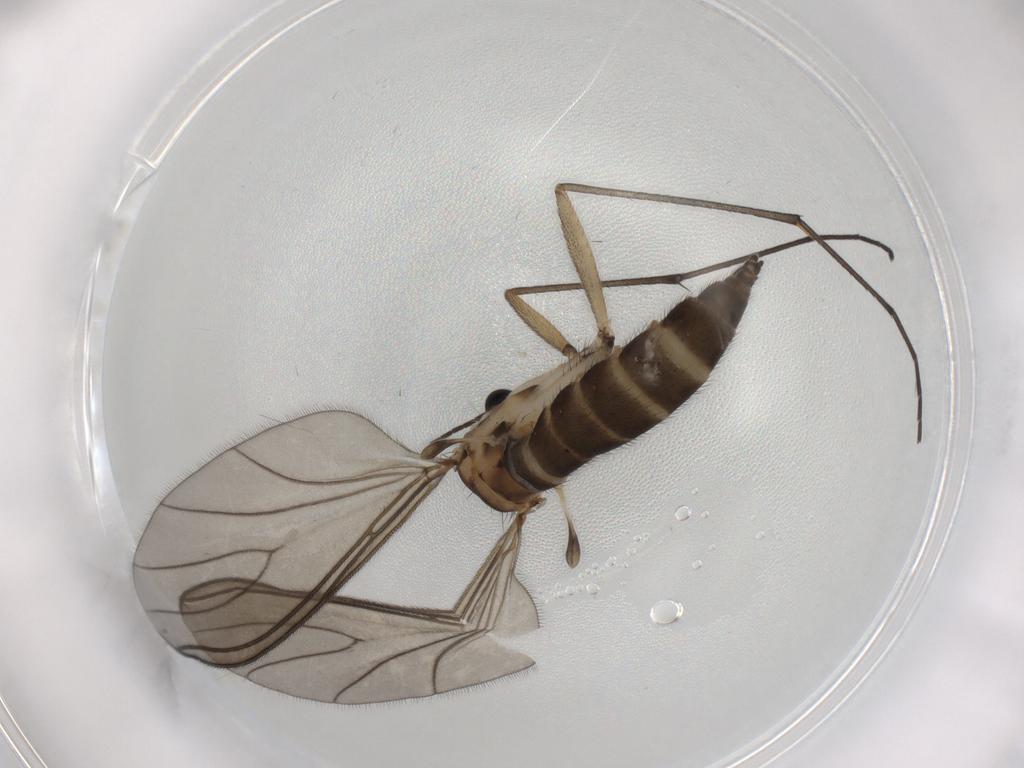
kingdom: Animalia
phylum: Arthropoda
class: Insecta
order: Diptera
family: Sciaridae
